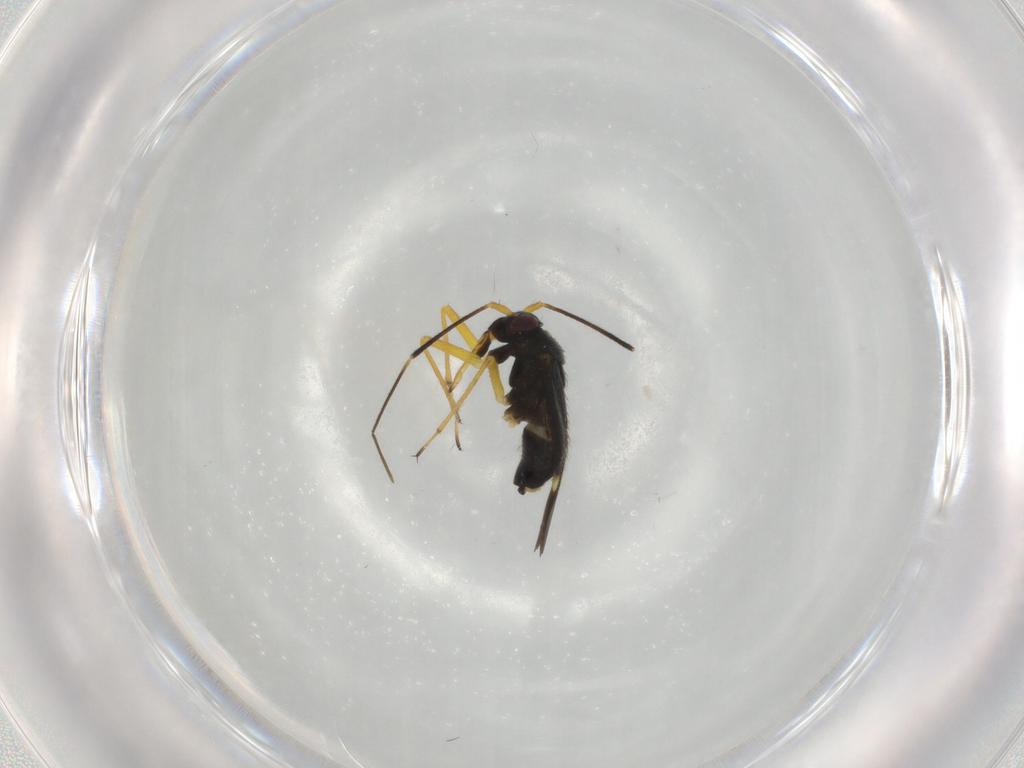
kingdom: Animalia
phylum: Arthropoda
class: Insecta
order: Hemiptera
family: Miridae
